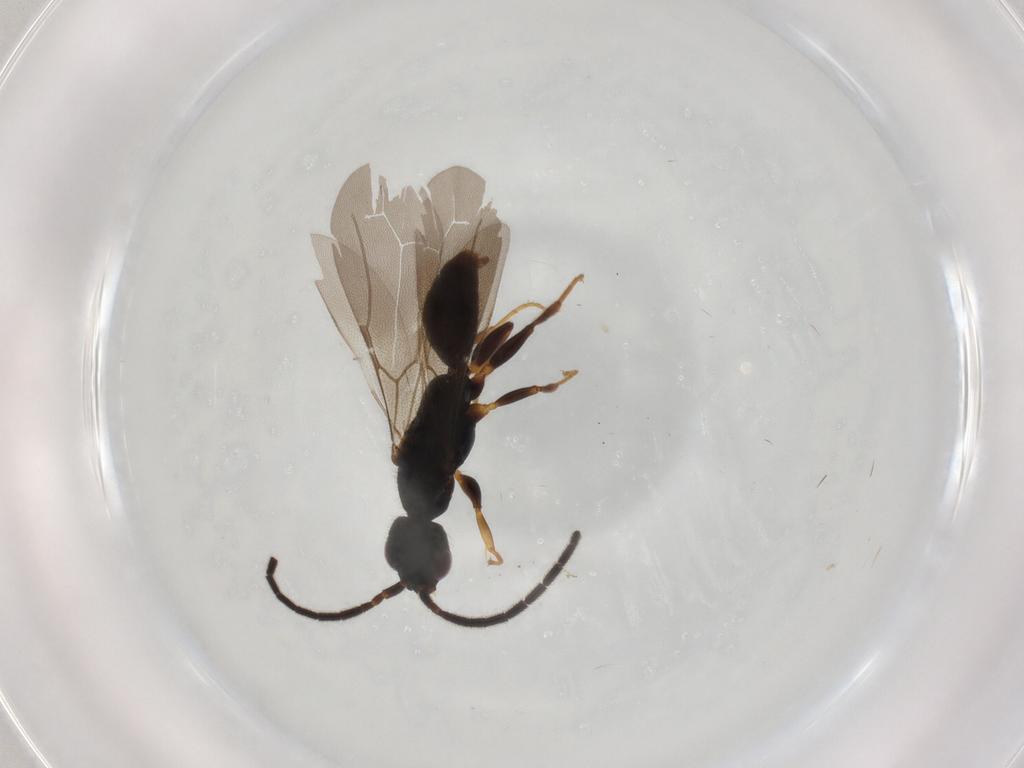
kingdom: Animalia
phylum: Arthropoda
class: Insecta
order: Hymenoptera
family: Bethylidae
